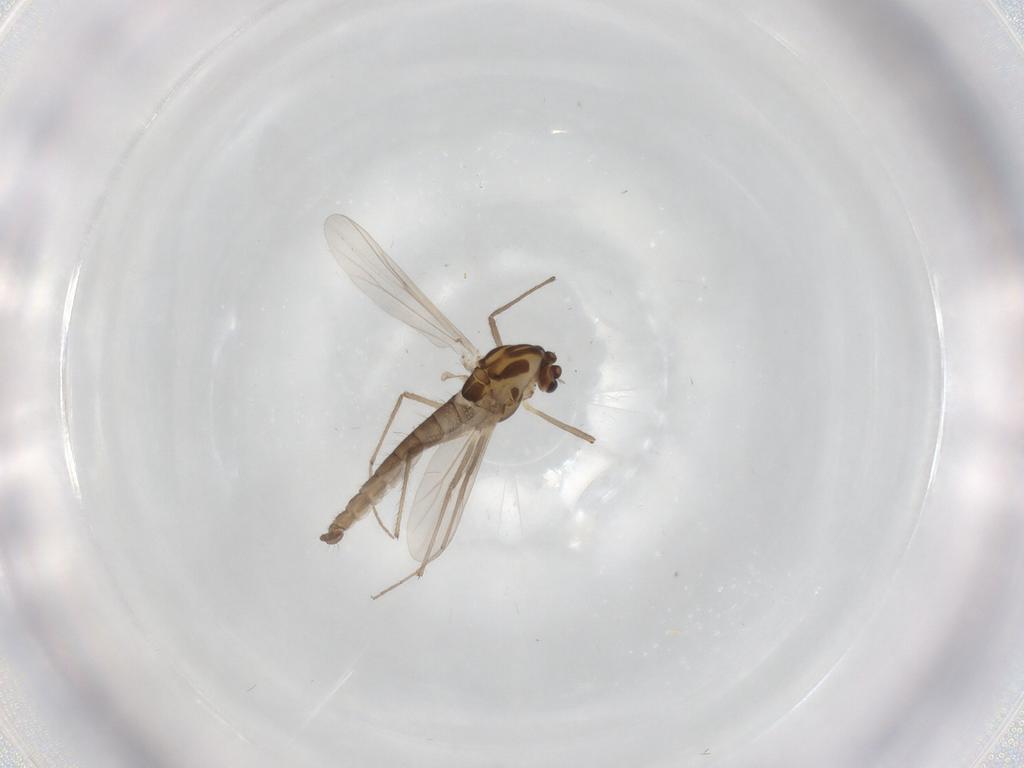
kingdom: Animalia
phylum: Arthropoda
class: Insecta
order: Diptera
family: Chironomidae
